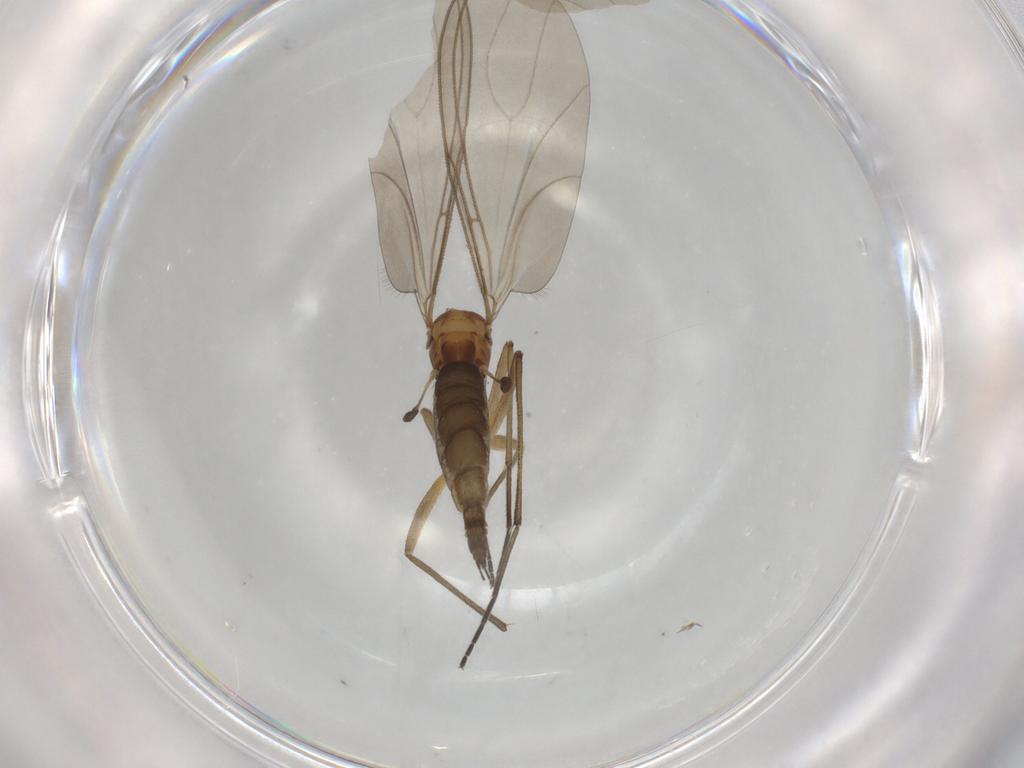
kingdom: Animalia
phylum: Arthropoda
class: Insecta
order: Diptera
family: Sciaridae
